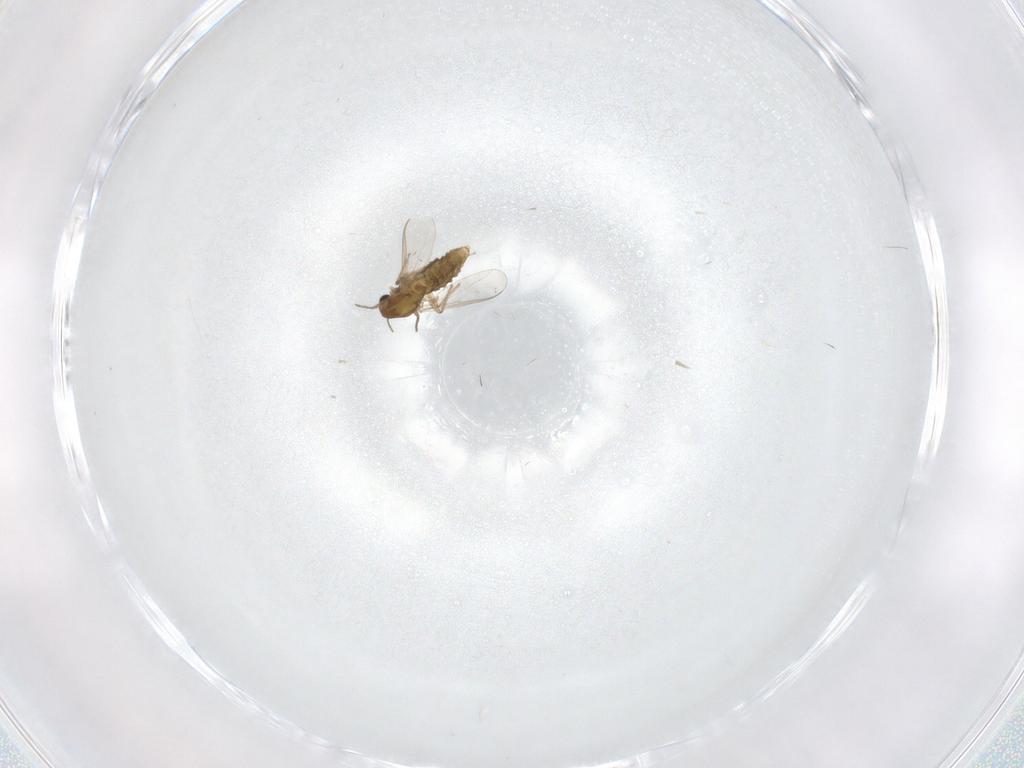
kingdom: Animalia
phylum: Arthropoda
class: Insecta
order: Diptera
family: Chironomidae
